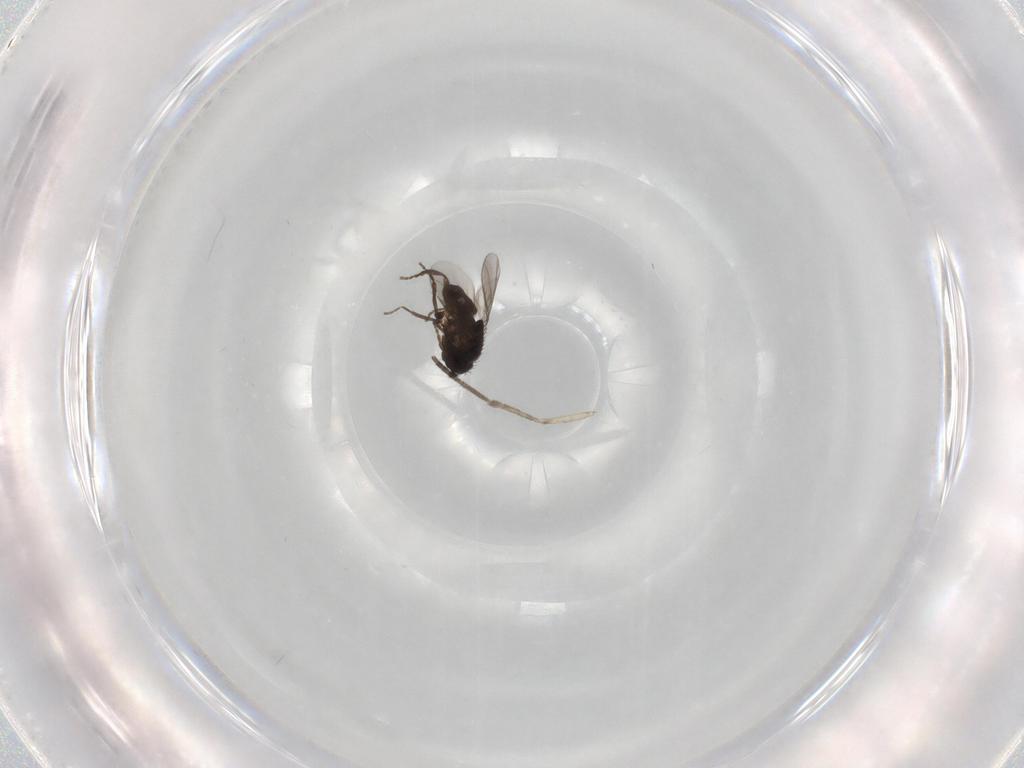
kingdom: Animalia
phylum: Arthropoda
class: Insecta
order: Diptera
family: Sphaeroceridae
